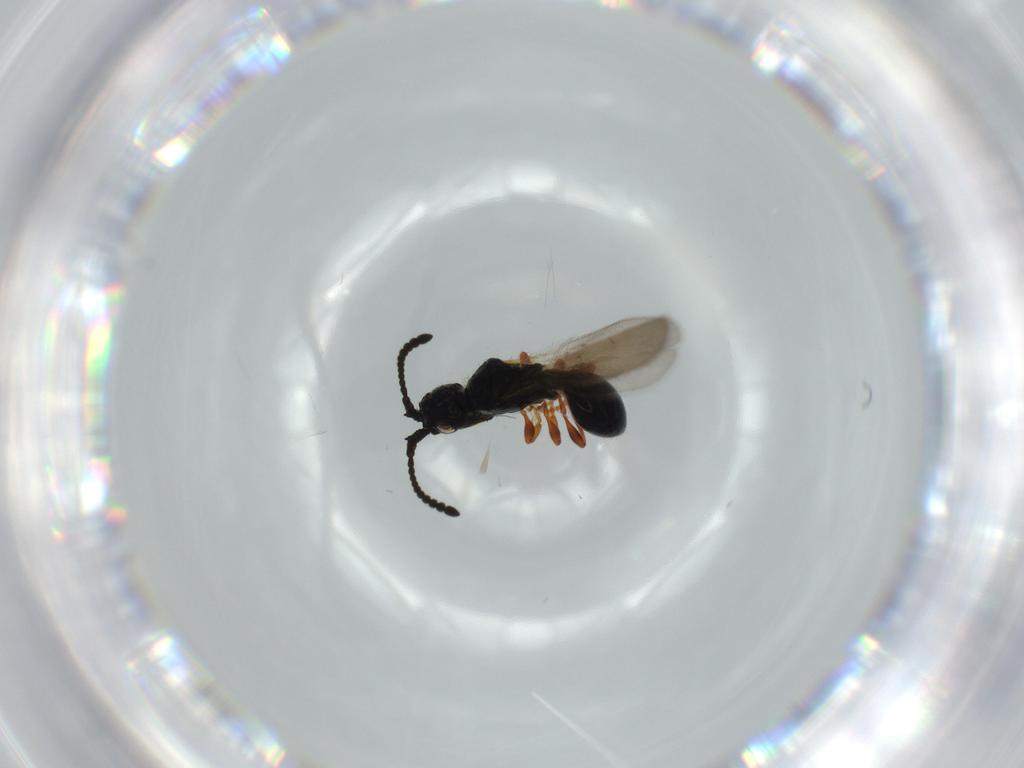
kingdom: Animalia
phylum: Arthropoda
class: Insecta
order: Hymenoptera
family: Diapriidae
